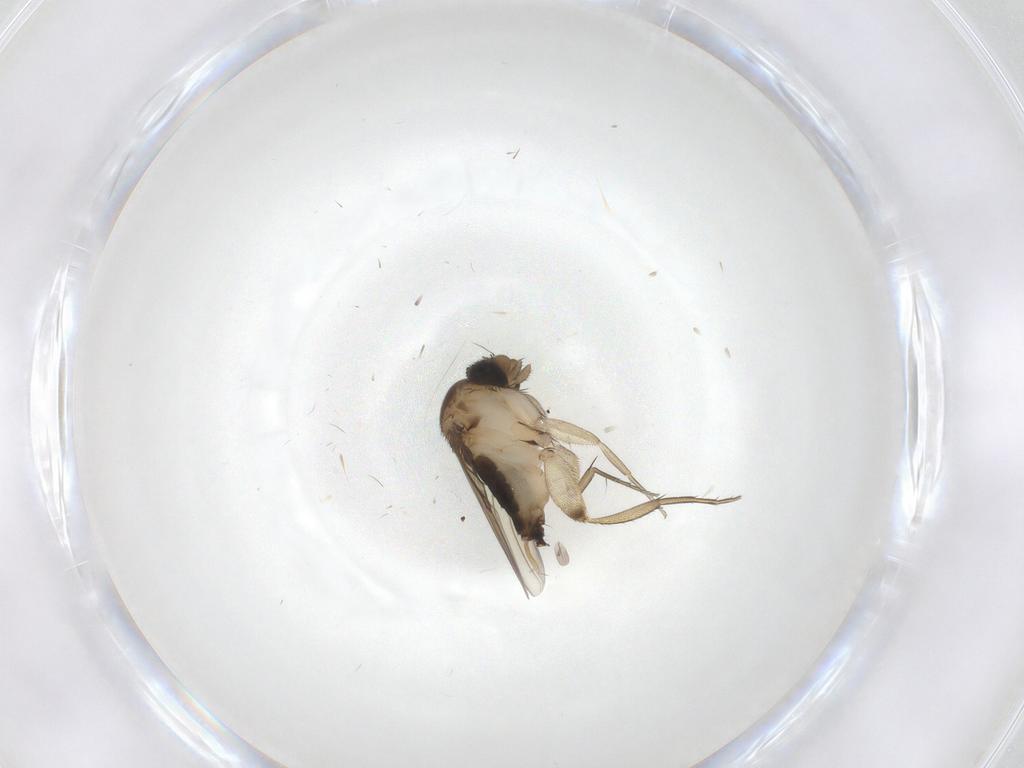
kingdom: Animalia
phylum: Arthropoda
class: Insecta
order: Diptera
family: Phoridae
